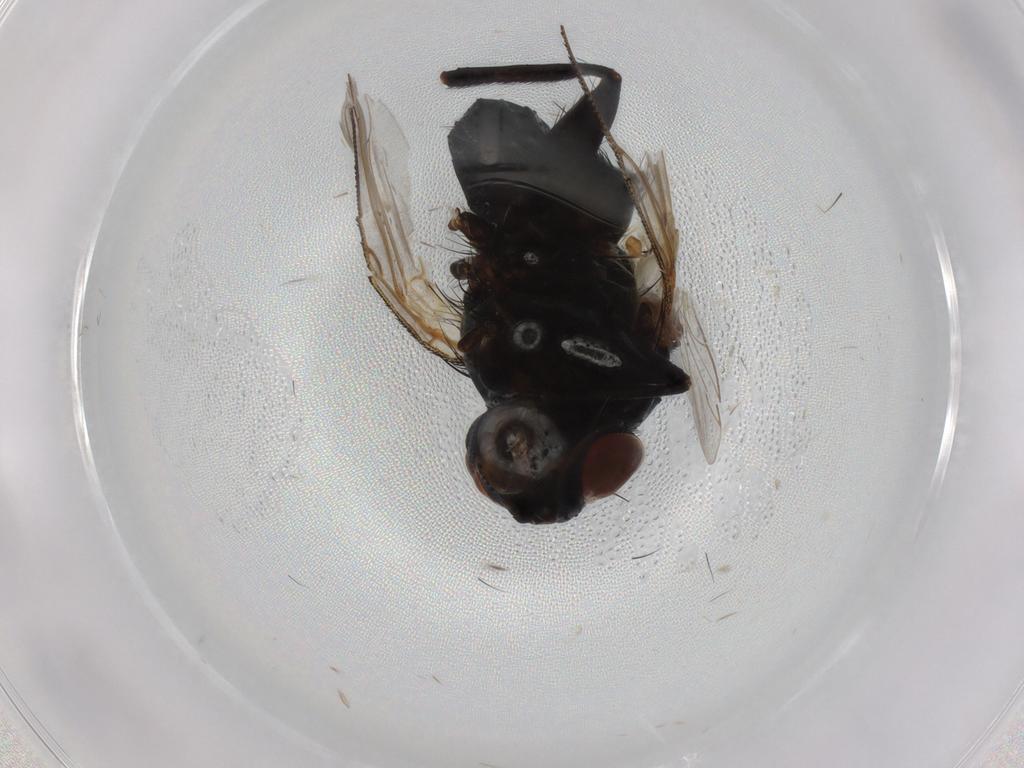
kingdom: Animalia
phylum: Arthropoda
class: Insecta
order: Diptera
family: Tachinidae
